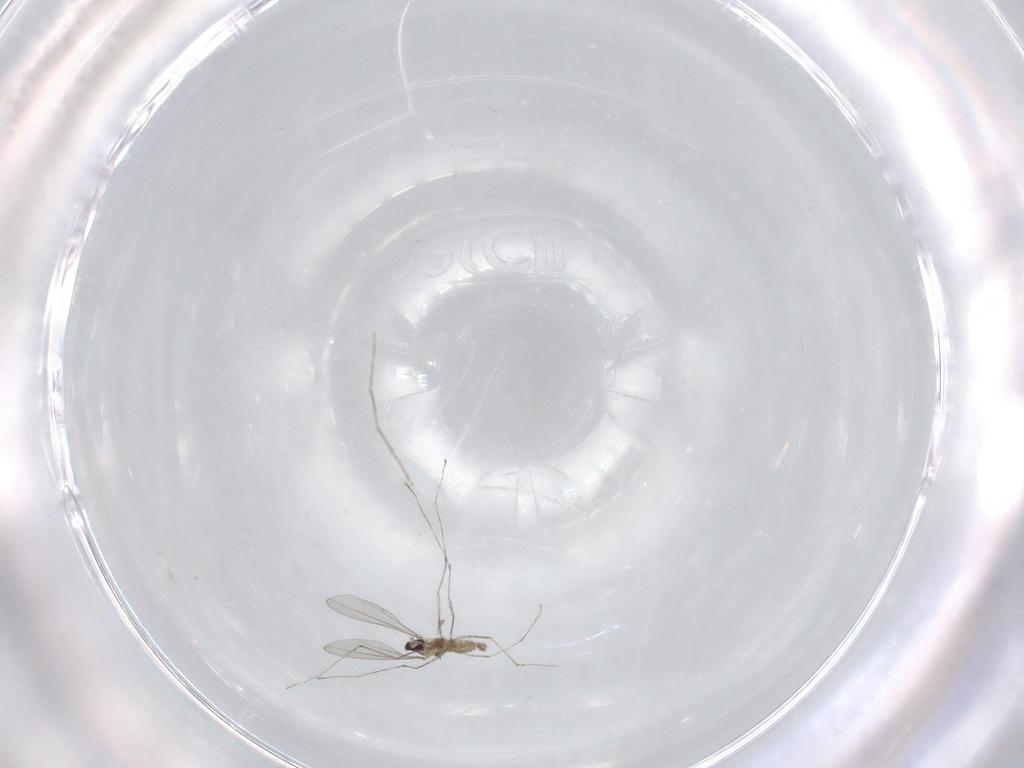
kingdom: Animalia
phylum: Arthropoda
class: Insecta
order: Diptera
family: Chironomidae
